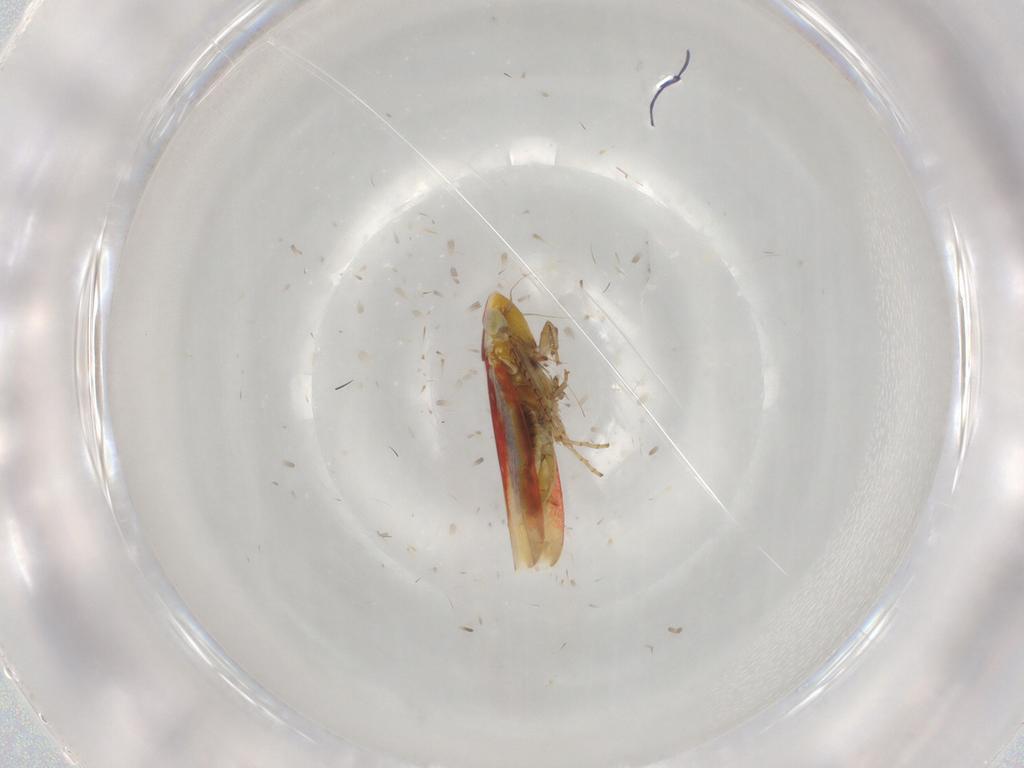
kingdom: Animalia
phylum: Arthropoda
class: Insecta
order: Hemiptera
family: Cicadellidae
